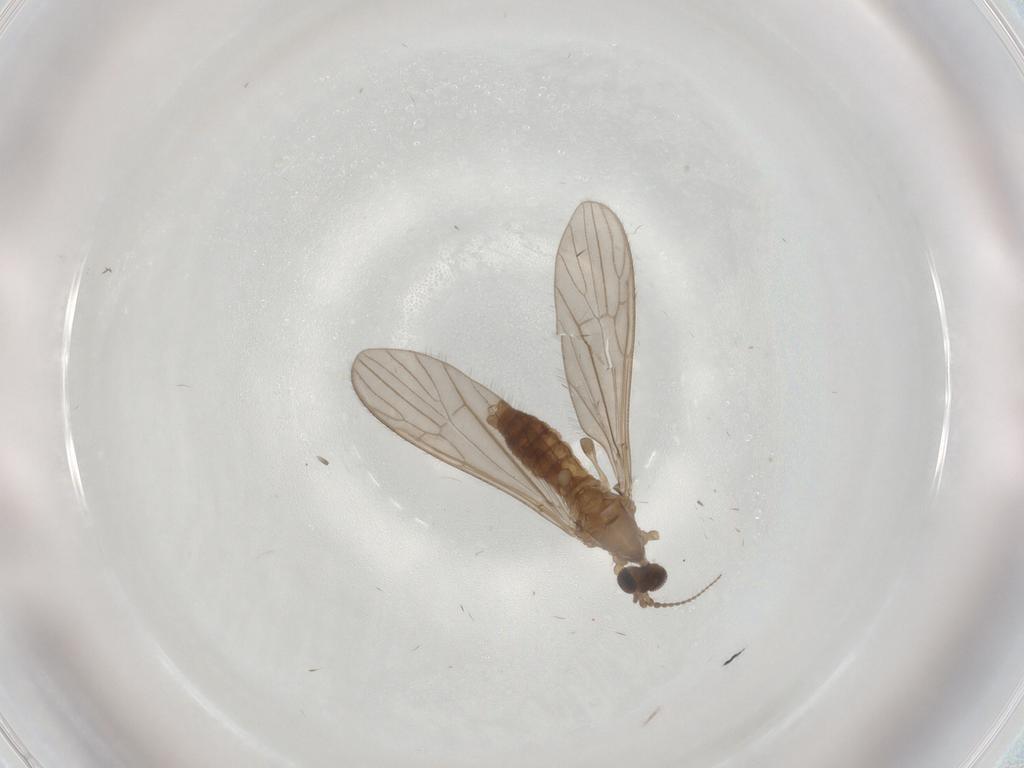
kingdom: Animalia
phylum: Arthropoda
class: Insecta
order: Diptera
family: Limoniidae
